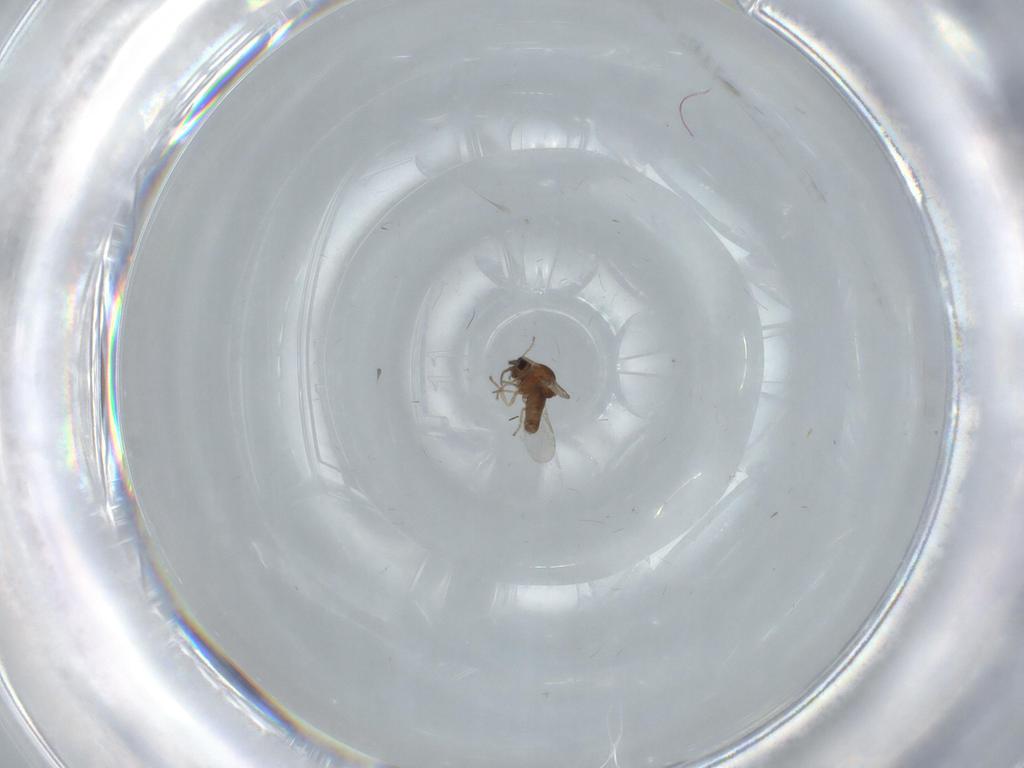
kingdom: Animalia
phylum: Arthropoda
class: Insecta
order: Diptera
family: Ceratopogonidae
